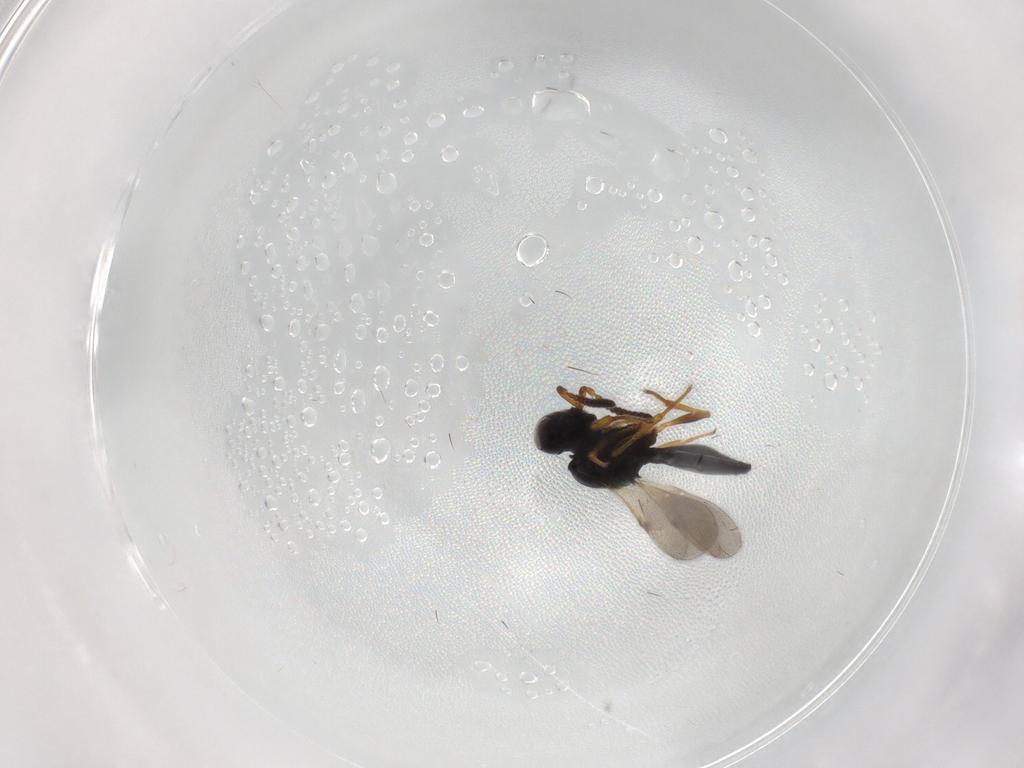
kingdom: Animalia
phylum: Arthropoda
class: Insecta
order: Hymenoptera
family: Scelionidae
